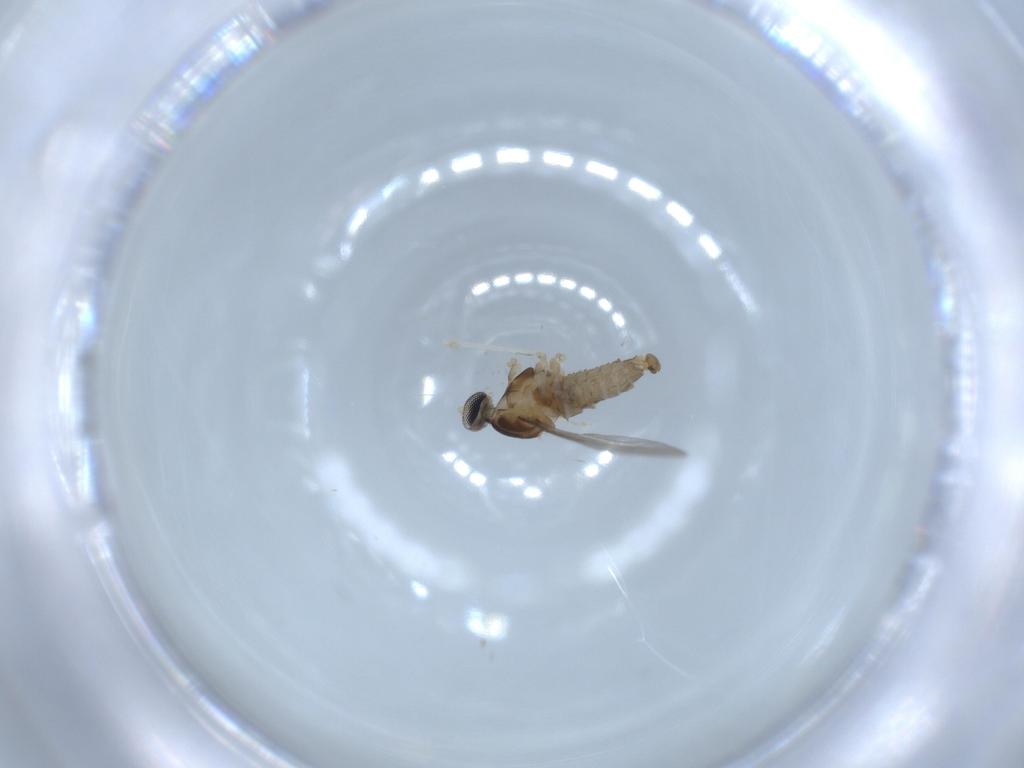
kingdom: Animalia
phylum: Arthropoda
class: Insecta
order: Diptera
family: Cecidomyiidae
